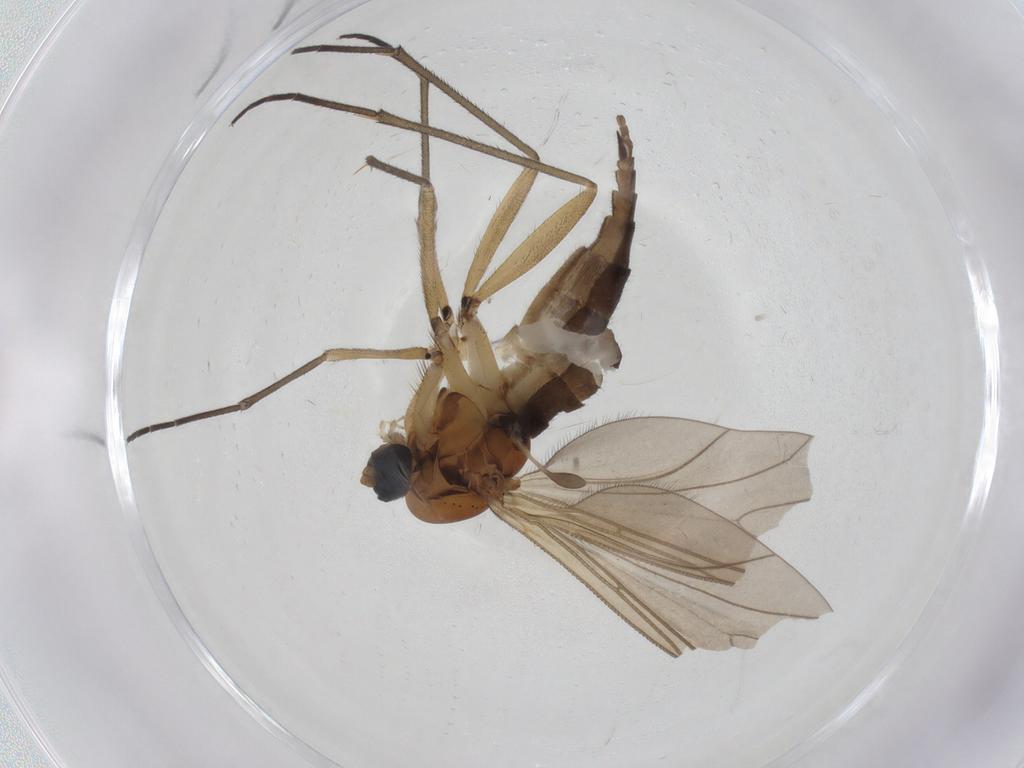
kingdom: Animalia
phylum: Arthropoda
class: Insecta
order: Diptera
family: Sciaridae
